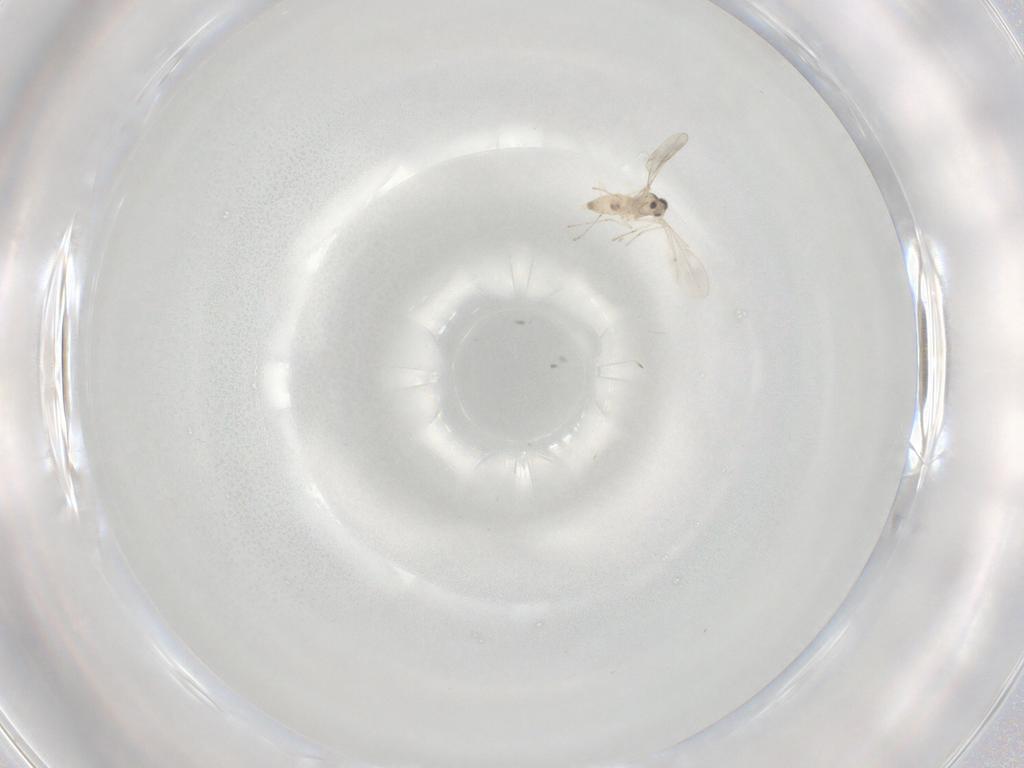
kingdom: Animalia
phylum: Arthropoda
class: Insecta
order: Diptera
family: Cecidomyiidae
